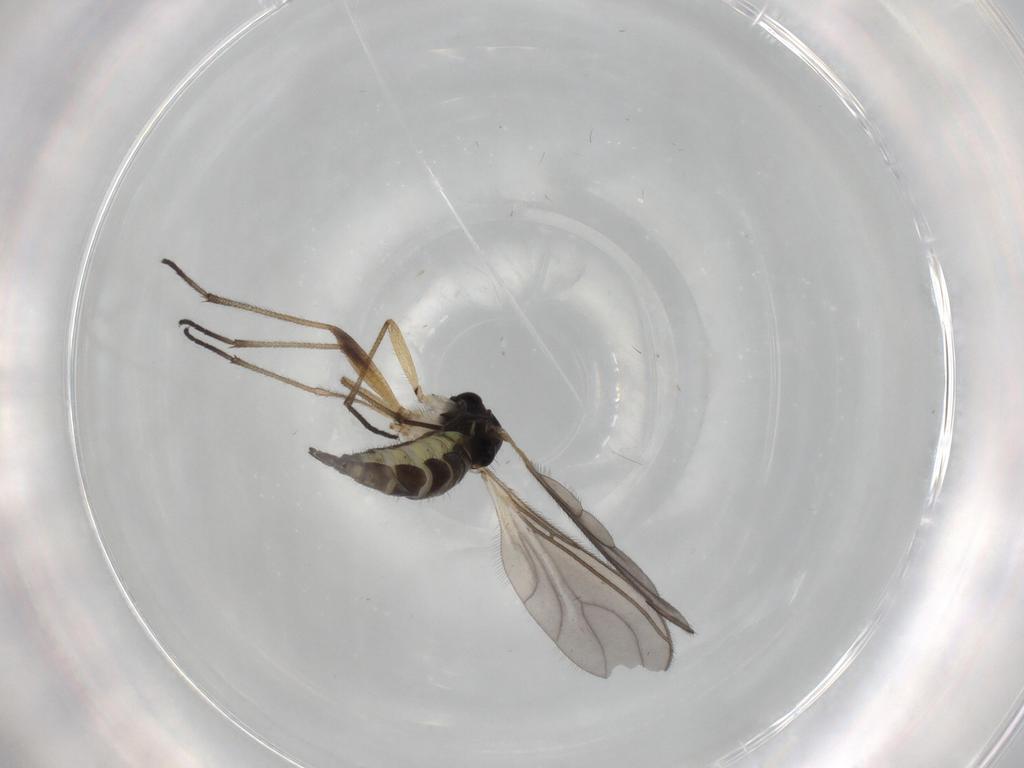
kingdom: Animalia
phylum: Arthropoda
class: Insecta
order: Diptera
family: Sciaridae
